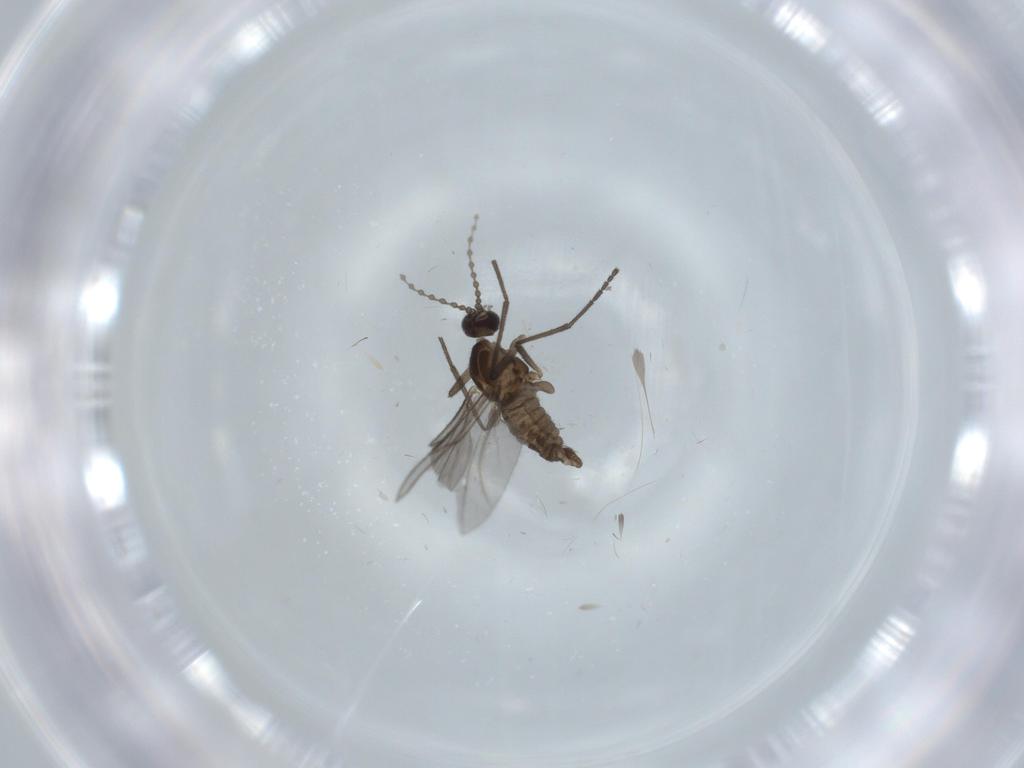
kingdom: Animalia
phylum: Arthropoda
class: Insecta
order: Diptera
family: Cecidomyiidae
